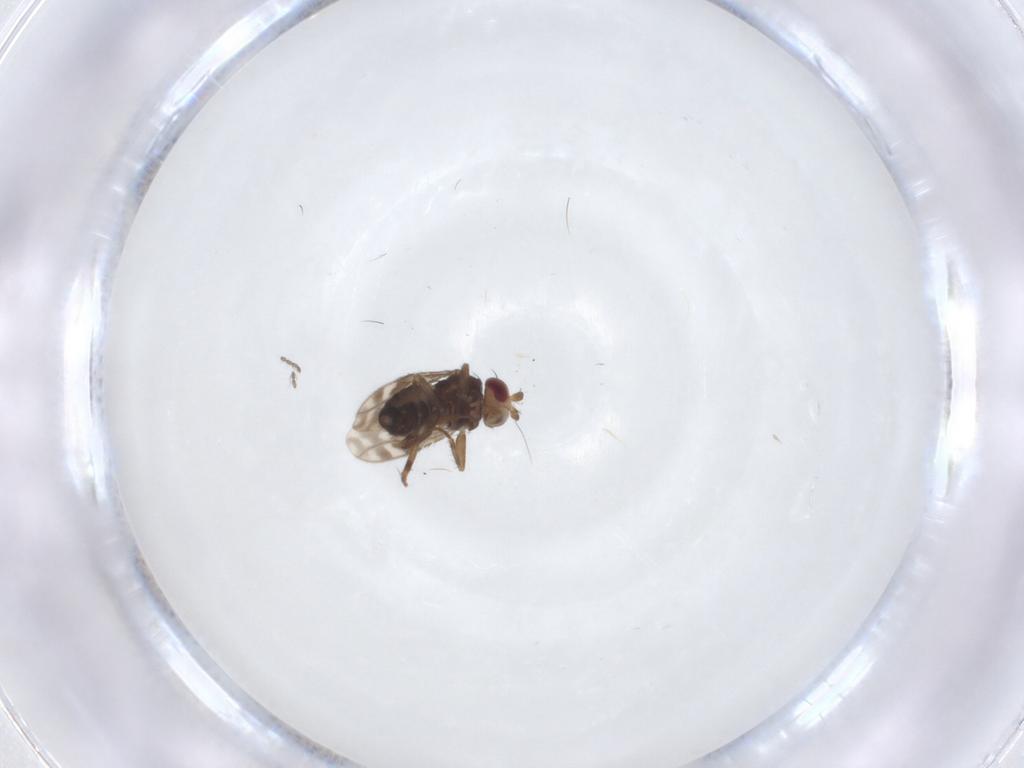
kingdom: Animalia
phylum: Arthropoda
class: Insecta
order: Diptera
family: Sphaeroceridae
